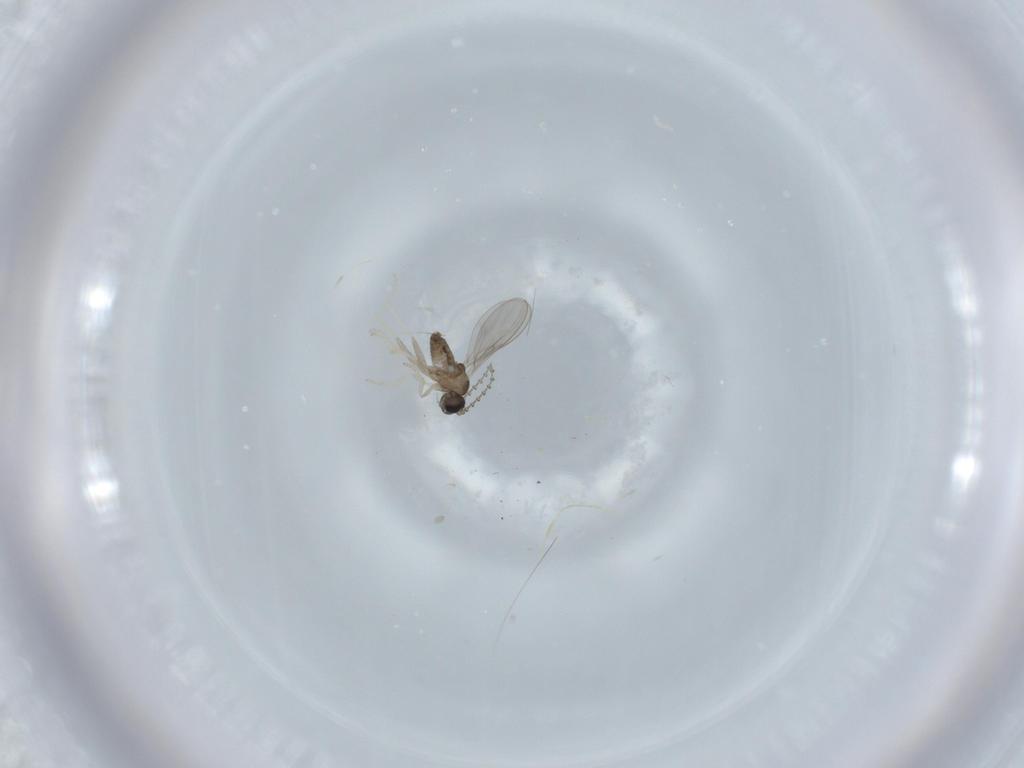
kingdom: Animalia
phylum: Arthropoda
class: Insecta
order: Diptera
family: Cecidomyiidae
